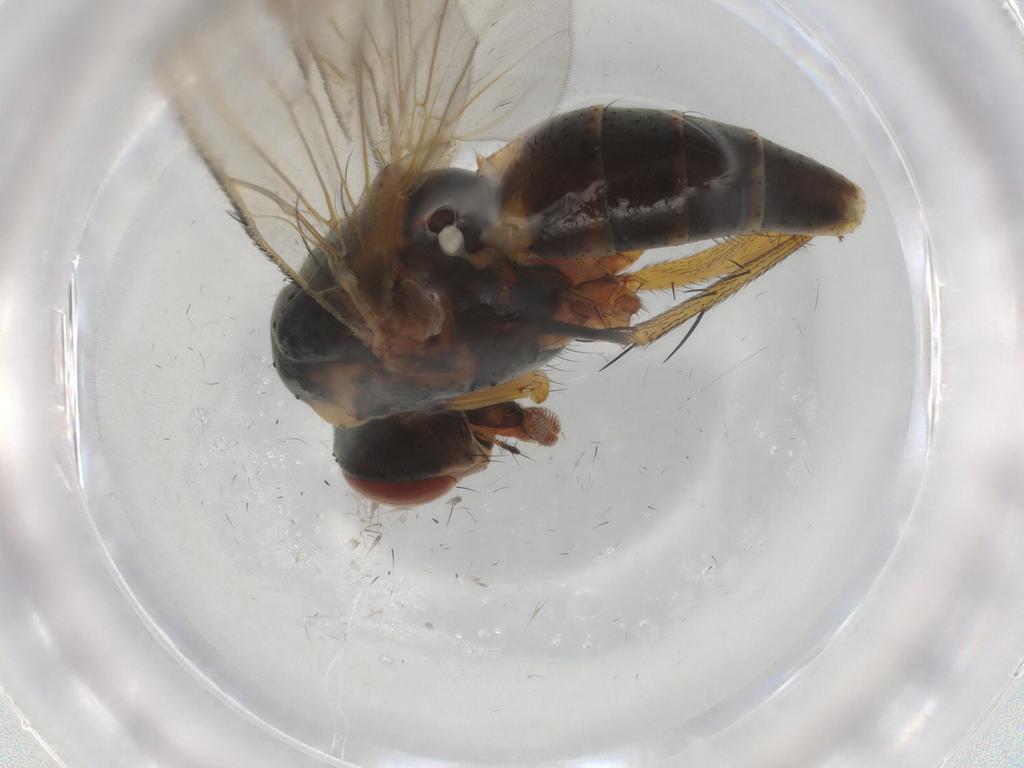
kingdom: Animalia
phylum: Arthropoda
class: Insecta
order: Diptera
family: Anthomyiidae
